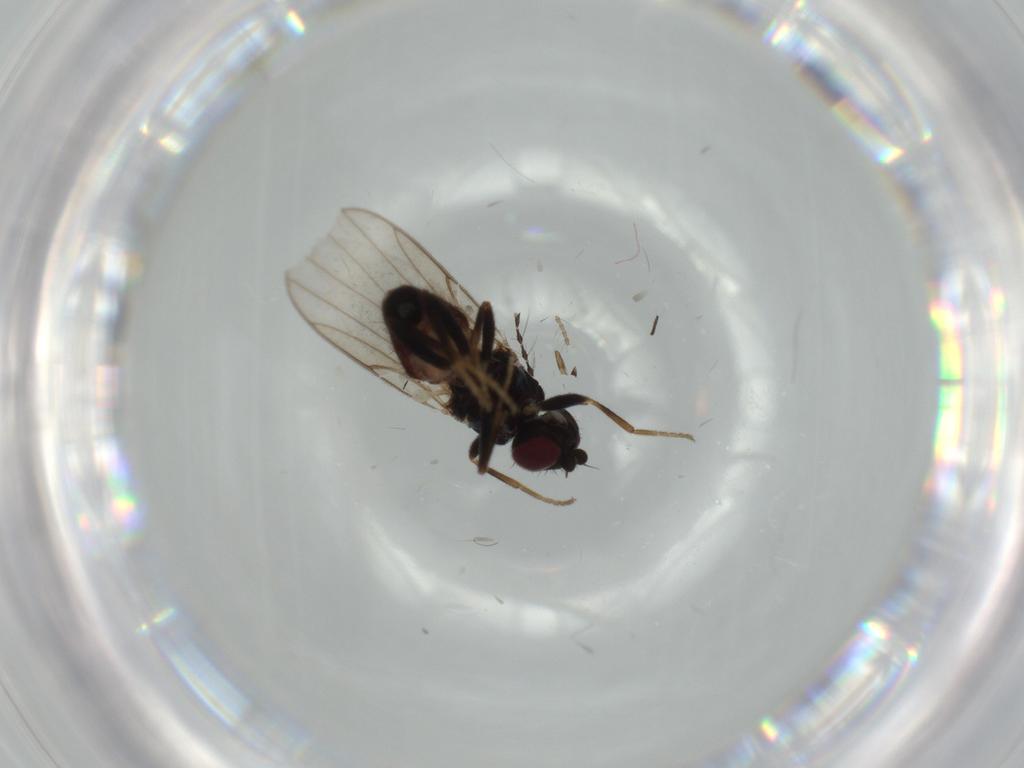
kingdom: Animalia
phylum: Arthropoda
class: Insecta
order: Diptera
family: Chloropidae
